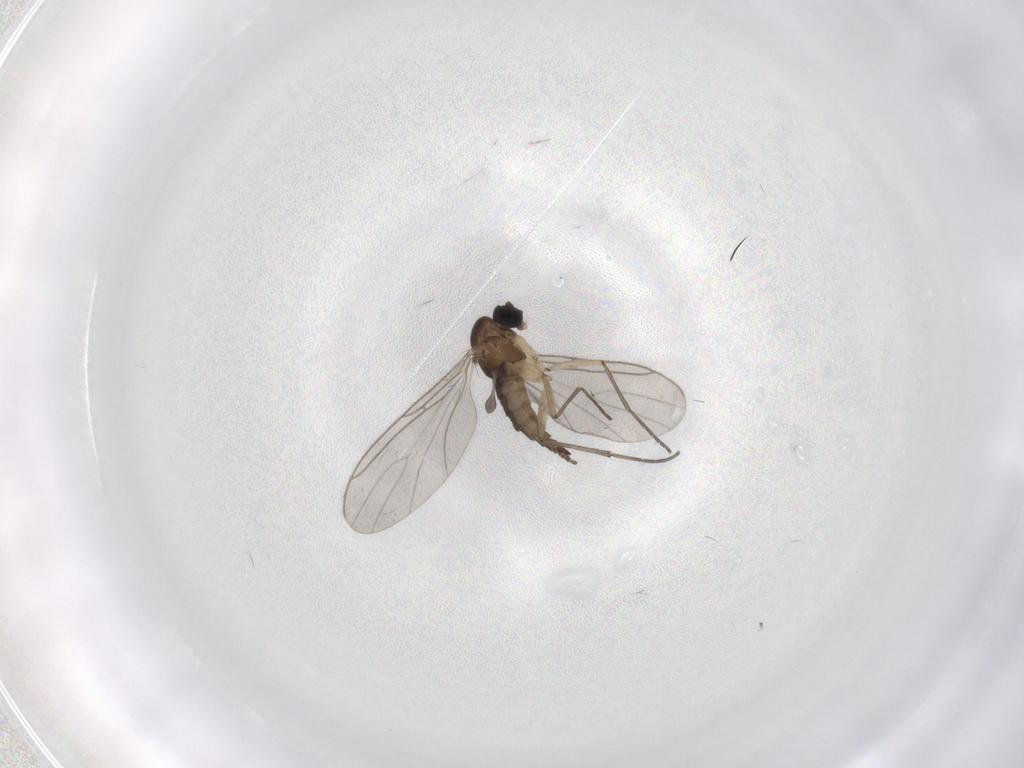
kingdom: Animalia
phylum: Arthropoda
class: Insecta
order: Diptera
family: Sciaridae
